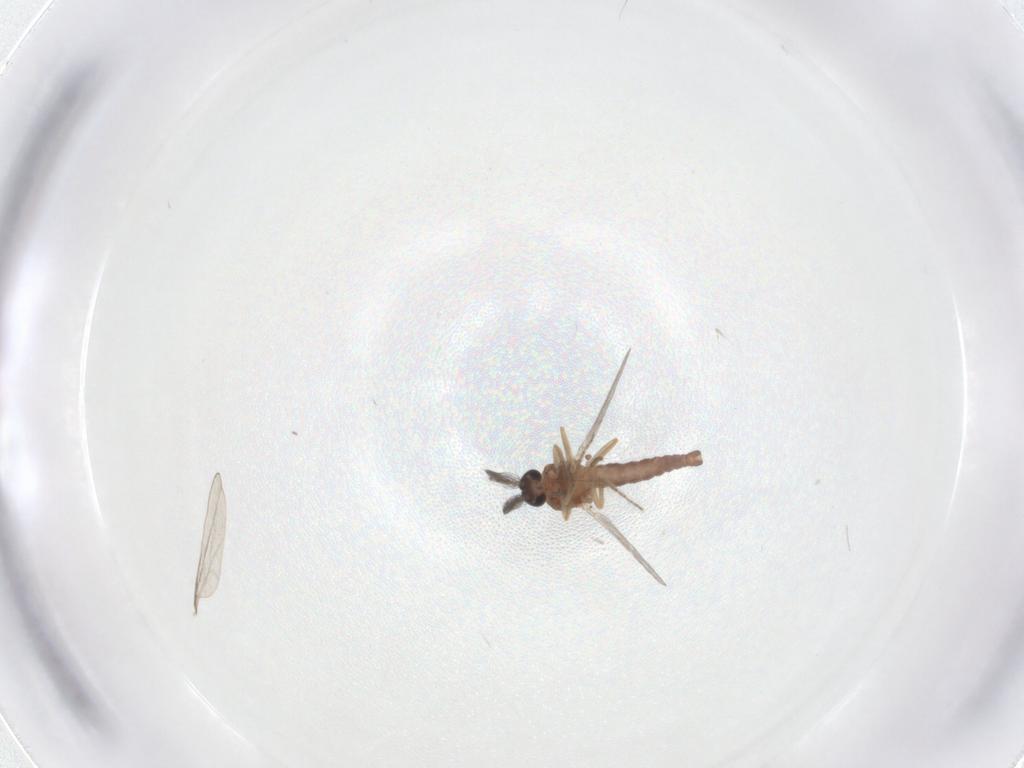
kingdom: Animalia
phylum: Arthropoda
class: Insecta
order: Diptera
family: Ceratopogonidae
